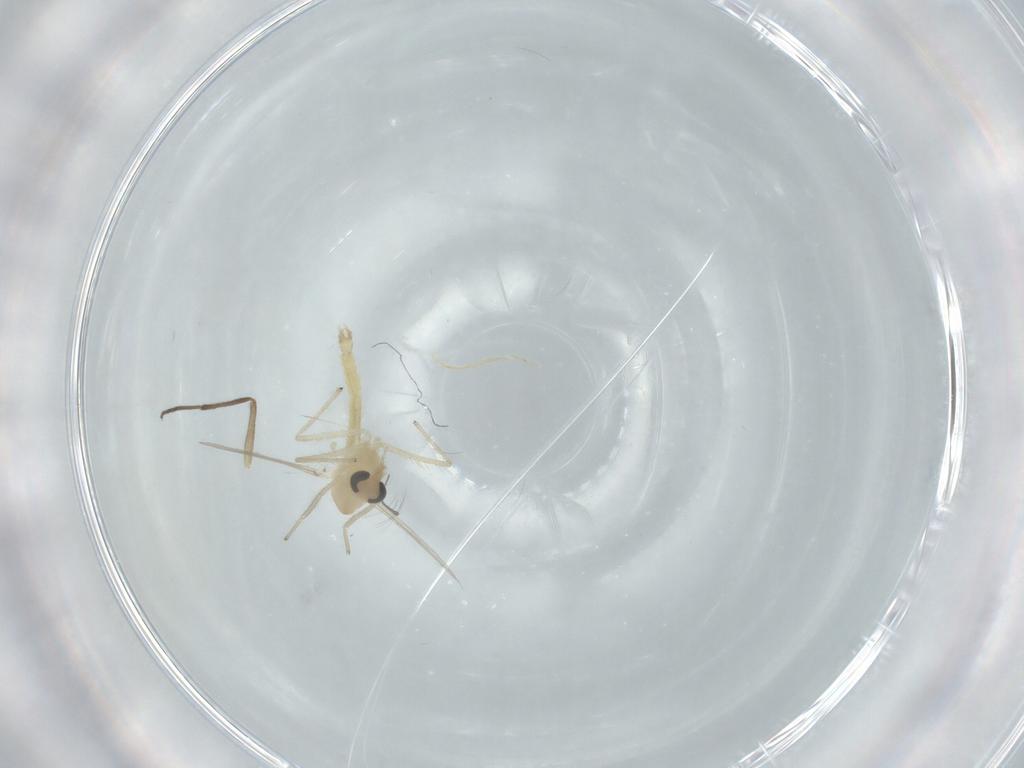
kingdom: Animalia
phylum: Arthropoda
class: Insecta
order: Diptera
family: Chironomidae
